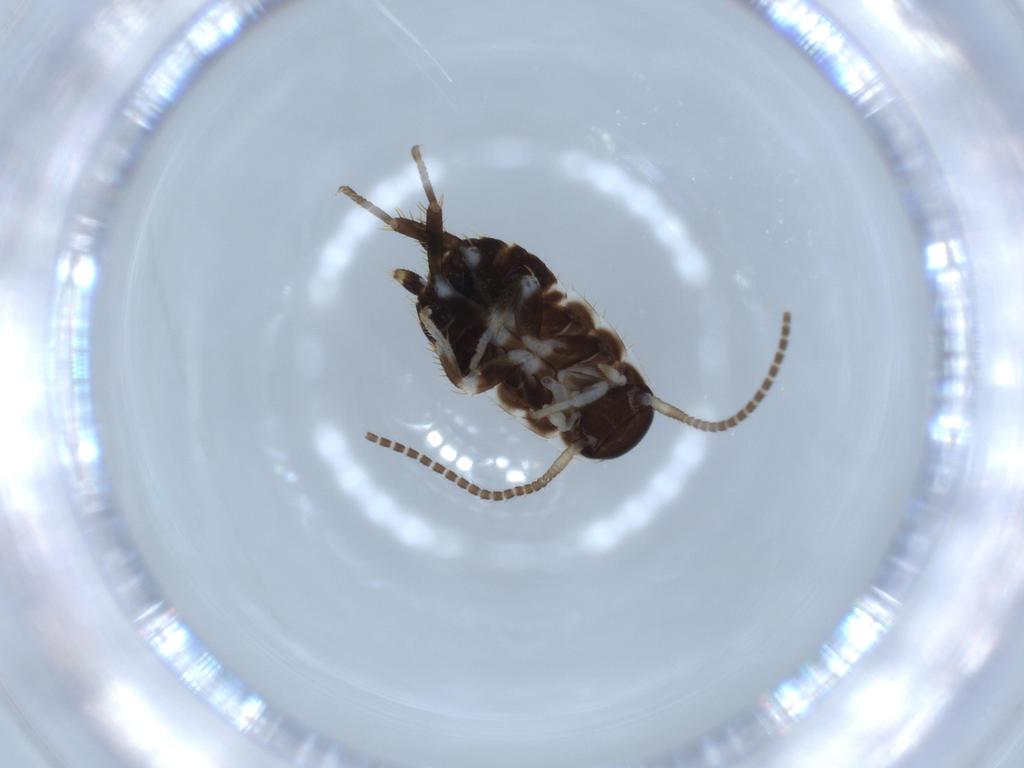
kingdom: Animalia
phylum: Arthropoda
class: Insecta
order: Blattodea
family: Ectobiidae
